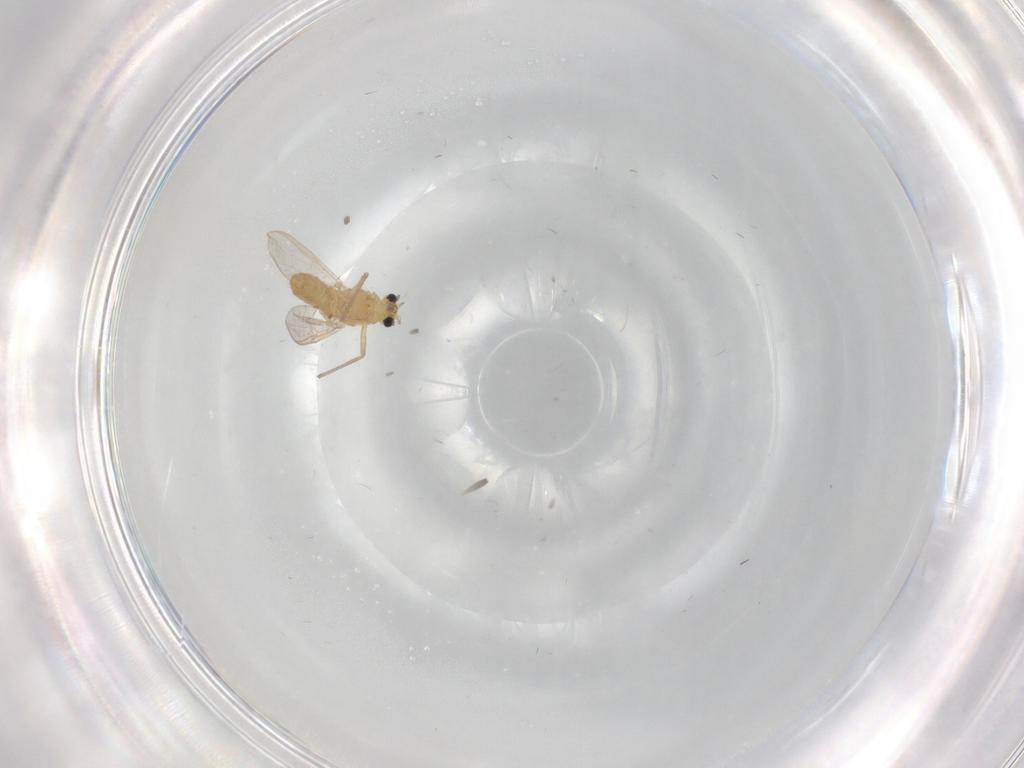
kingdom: Animalia
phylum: Arthropoda
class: Insecta
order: Diptera
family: Chironomidae
